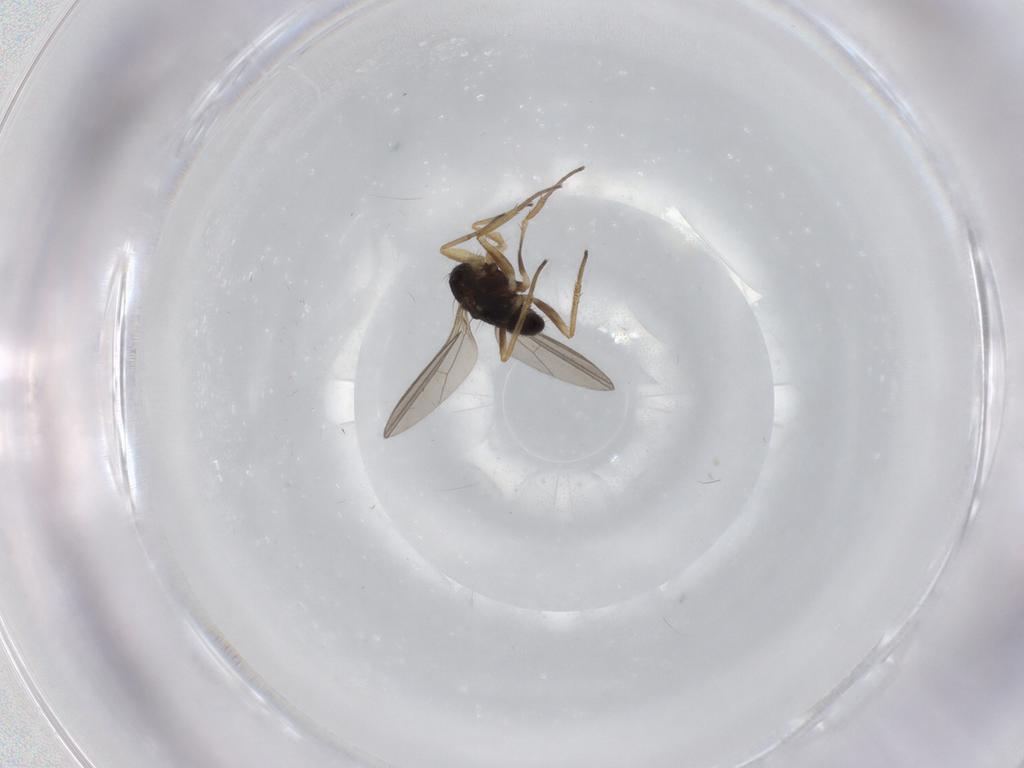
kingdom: Animalia
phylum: Arthropoda
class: Insecta
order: Diptera
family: Dolichopodidae
